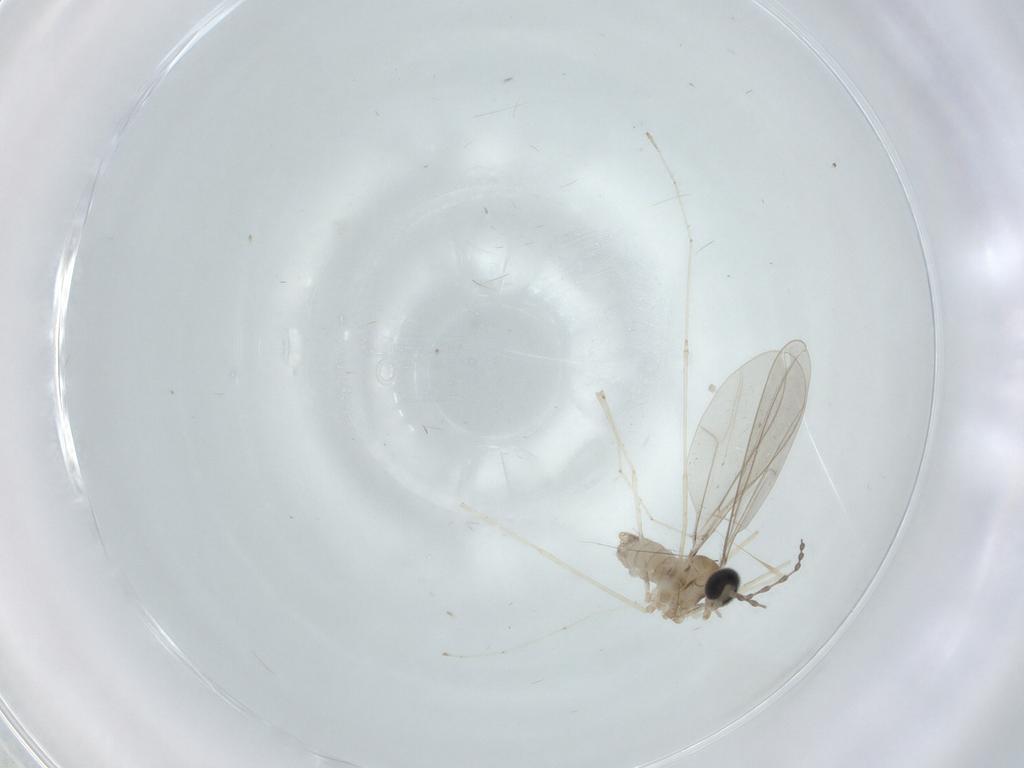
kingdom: Animalia
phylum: Arthropoda
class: Insecta
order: Diptera
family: Cecidomyiidae
